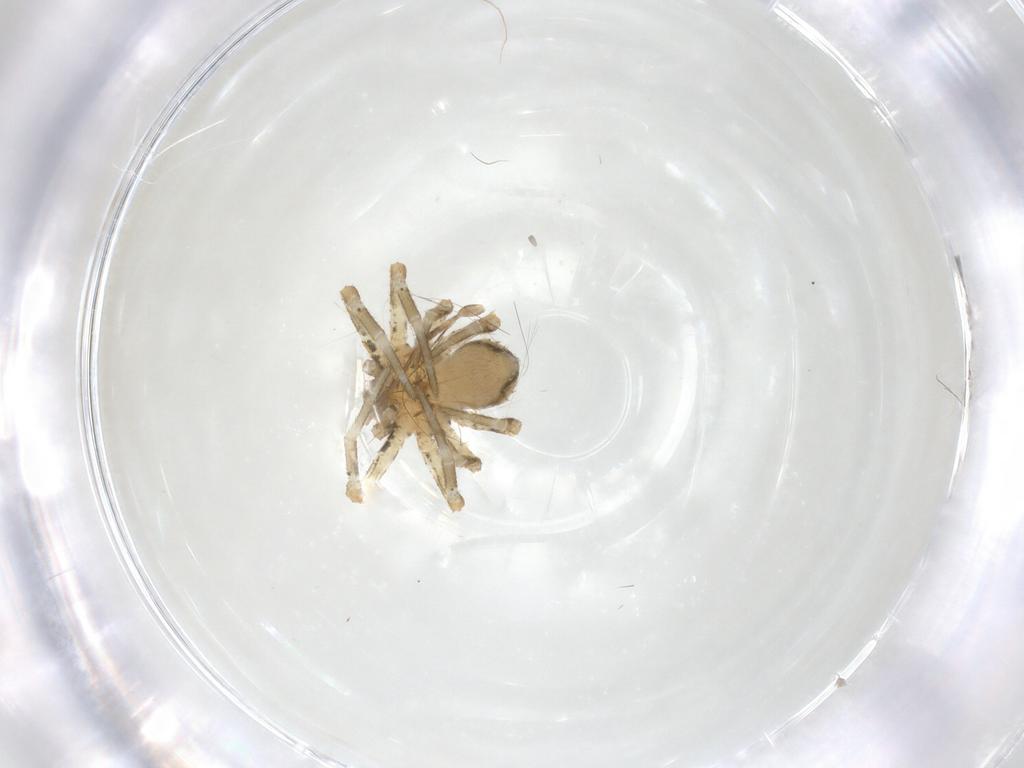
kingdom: Animalia
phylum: Arthropoda
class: Insecta
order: Lepidoptera
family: Gracillariidae
